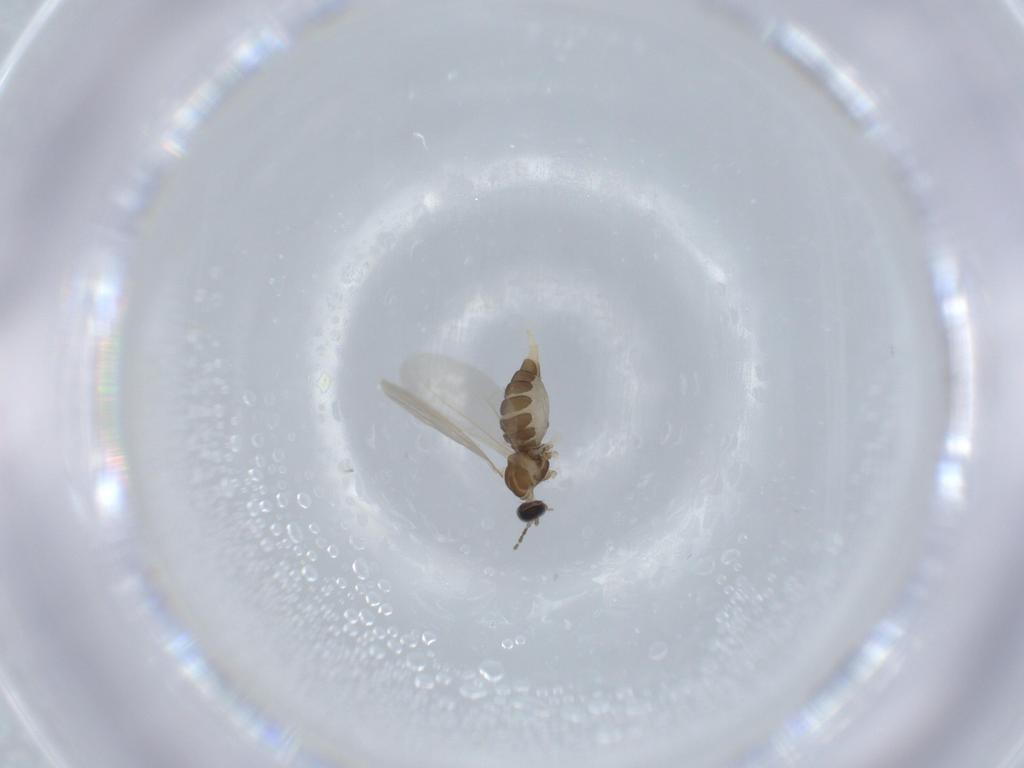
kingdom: Animalia
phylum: Arthropoda
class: Insecta
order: Diptera
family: Cecidomyiidae
